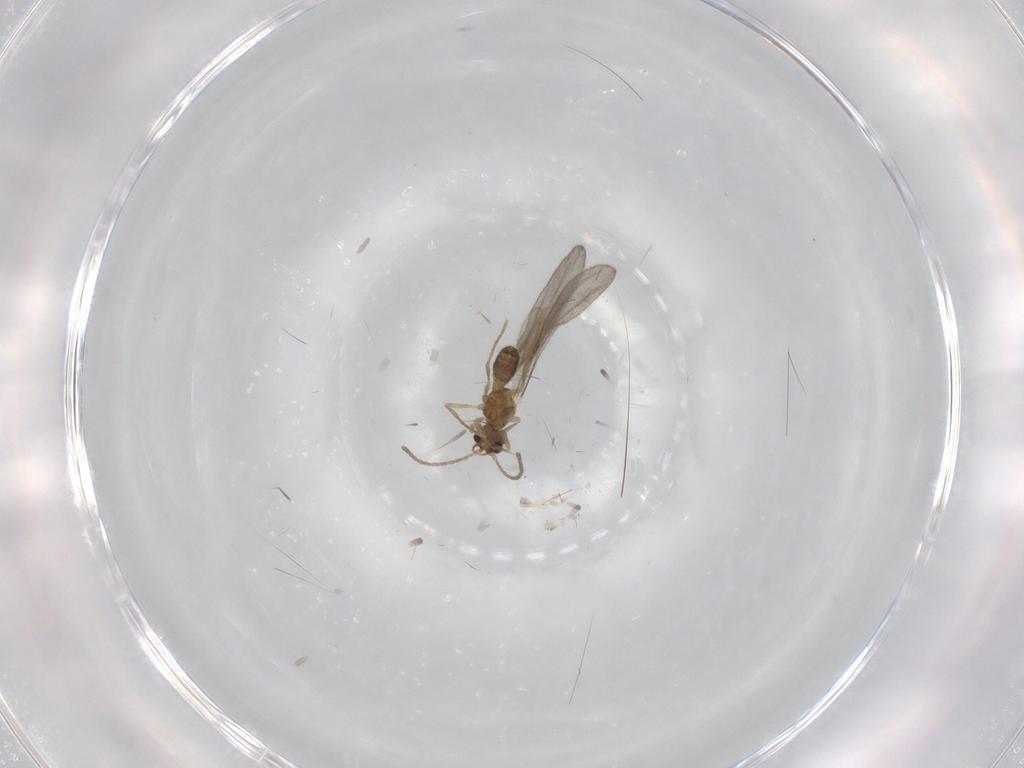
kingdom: Animalia
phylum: Arthropoda
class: Insecta
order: Hymenoptera
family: Formicidae
